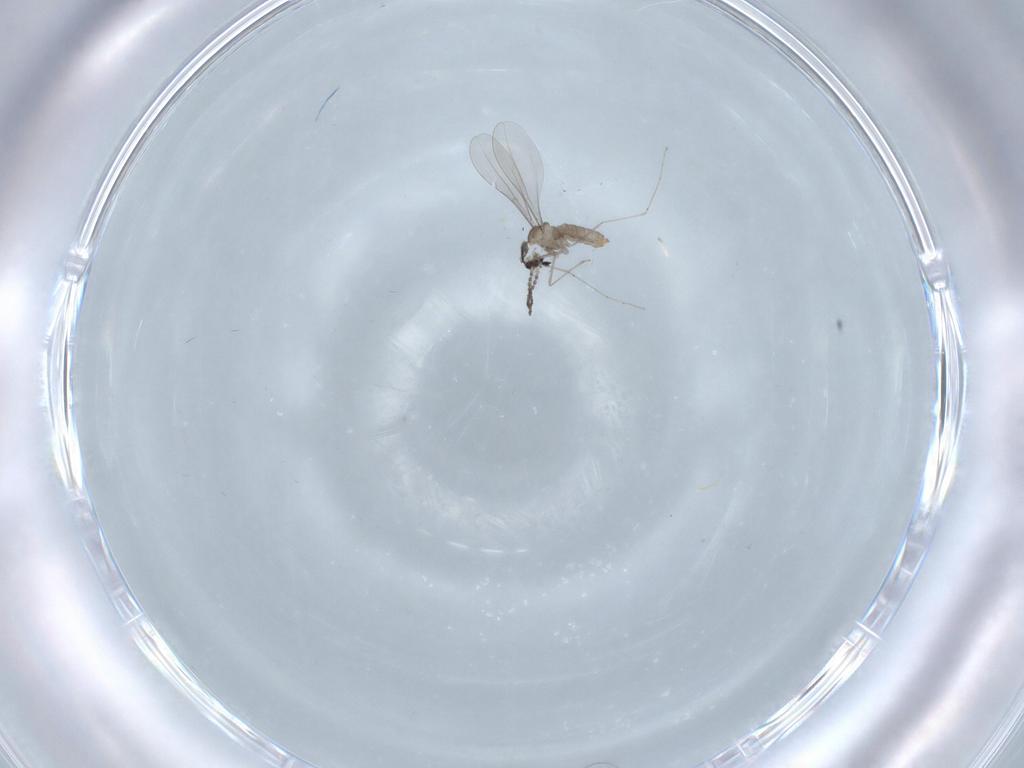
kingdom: Animalia
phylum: Arthropoda
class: Insecta
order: Diptera
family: Cecidomyiidae
